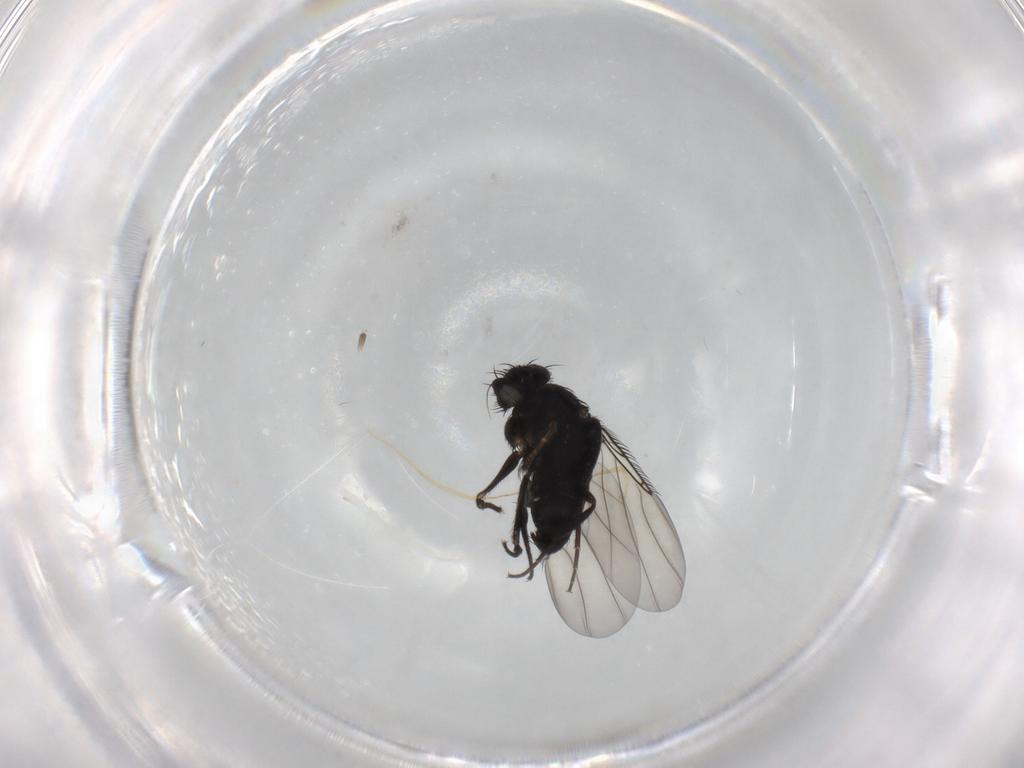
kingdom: Animalia
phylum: Arthropoda
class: Insecta
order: Diptera
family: Phoridae
